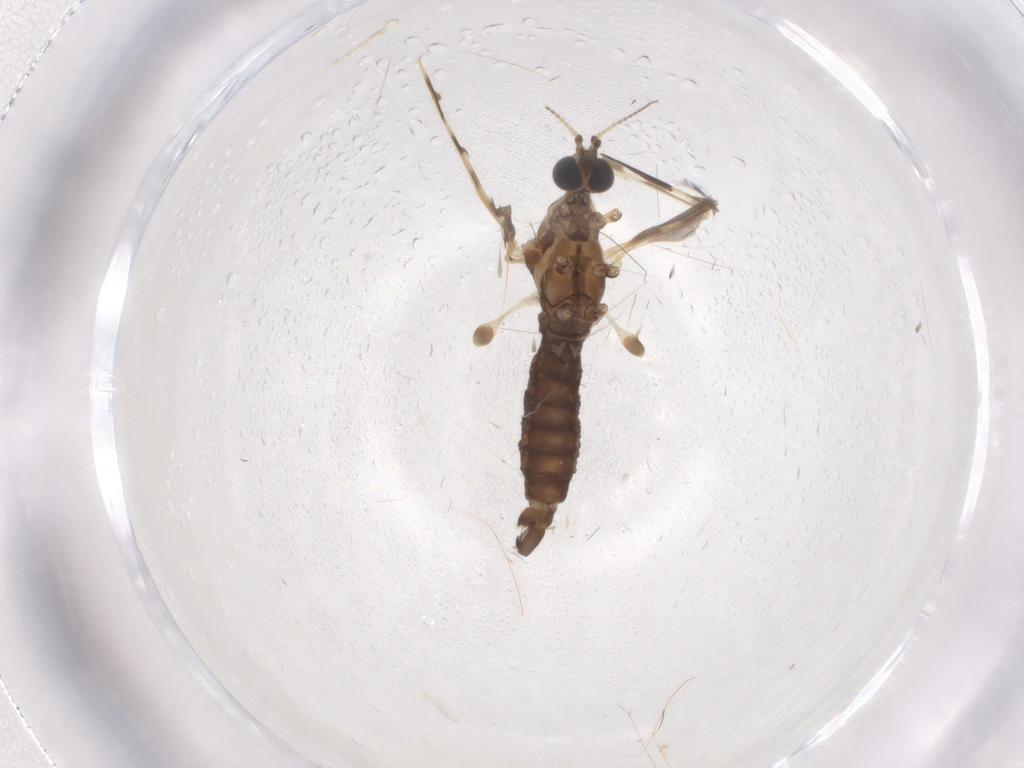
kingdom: Animalia
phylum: Arthropoda
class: Insecta
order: Diptera
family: Limoniidae
